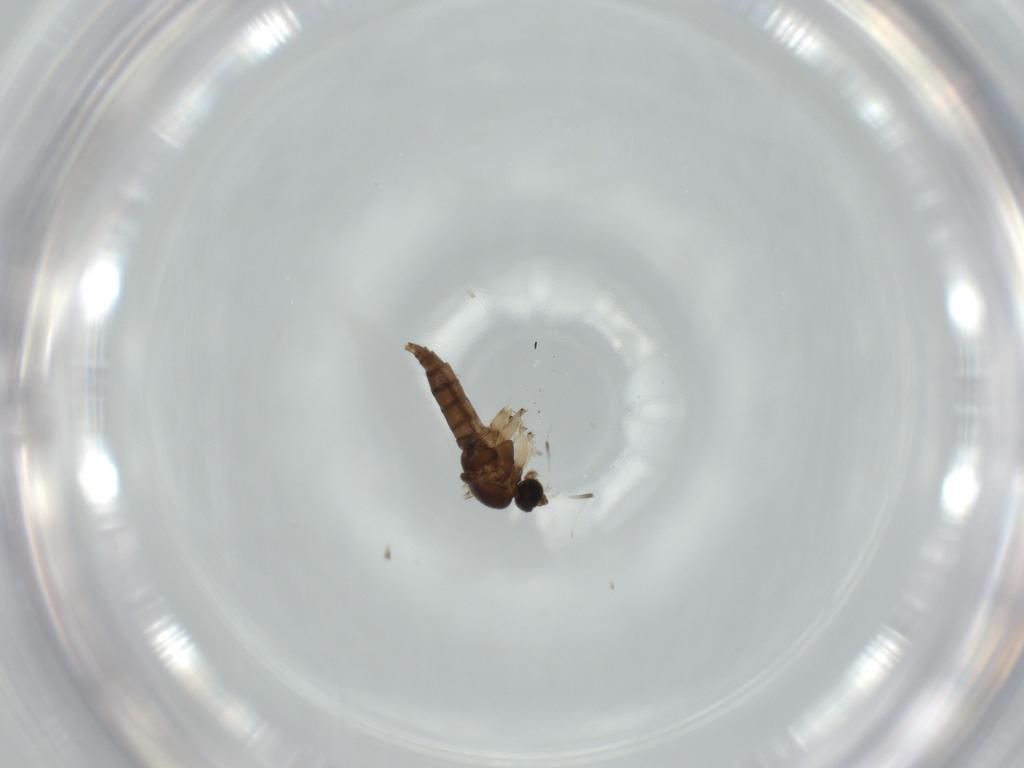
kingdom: Animalia
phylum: Arthropoda
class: Insecta
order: Diptera
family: Sciaridae
